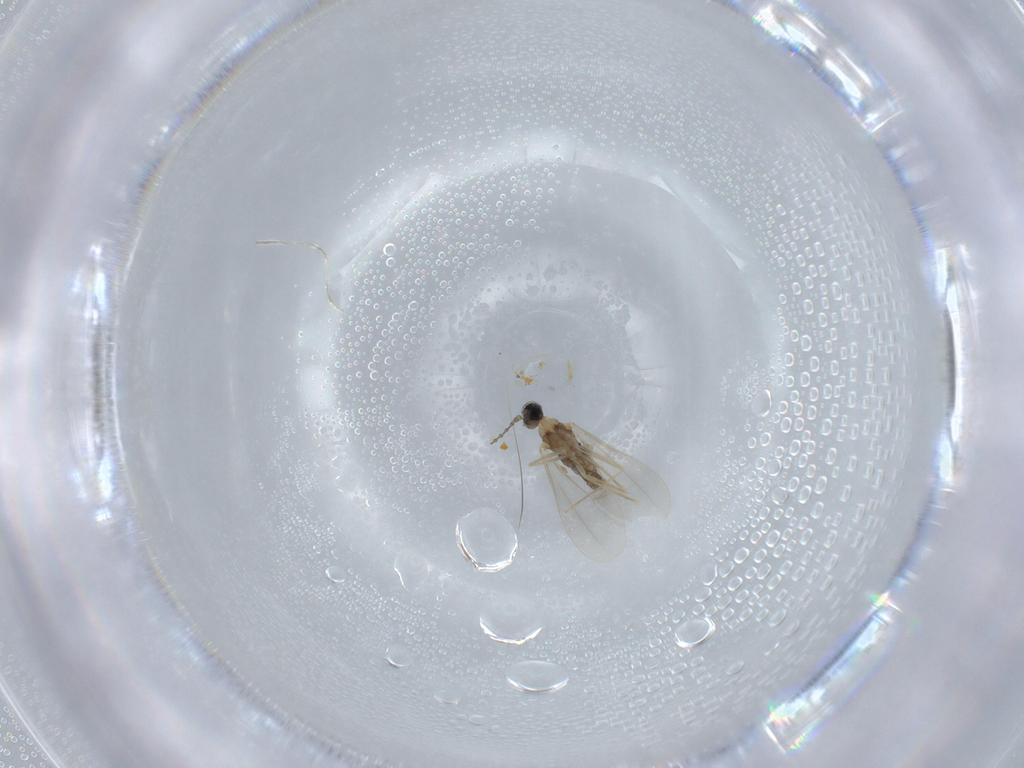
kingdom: Animalia
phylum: Arthropoda
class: Insecta
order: Diptera
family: Cecidomyiidae
